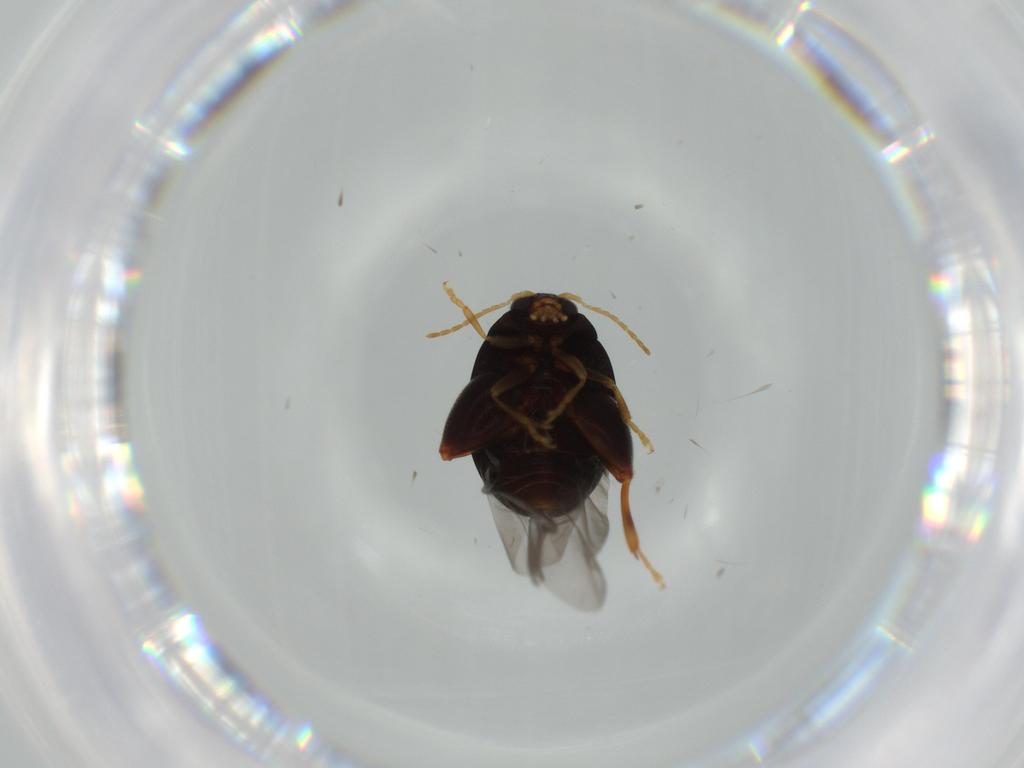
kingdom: Animalia
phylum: Arthropoda
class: Insecta
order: Coleoptera
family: Chrysomelidae
